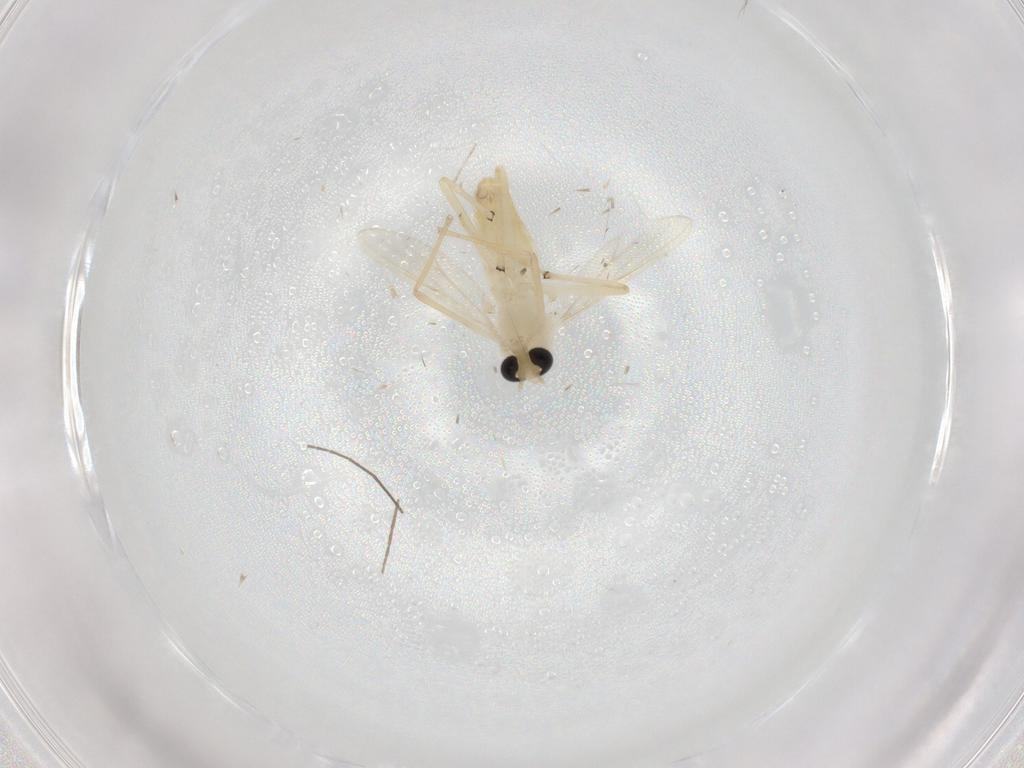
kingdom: Animalia
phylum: Arthropoda
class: Insecta
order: Diptera
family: Chironomidae
